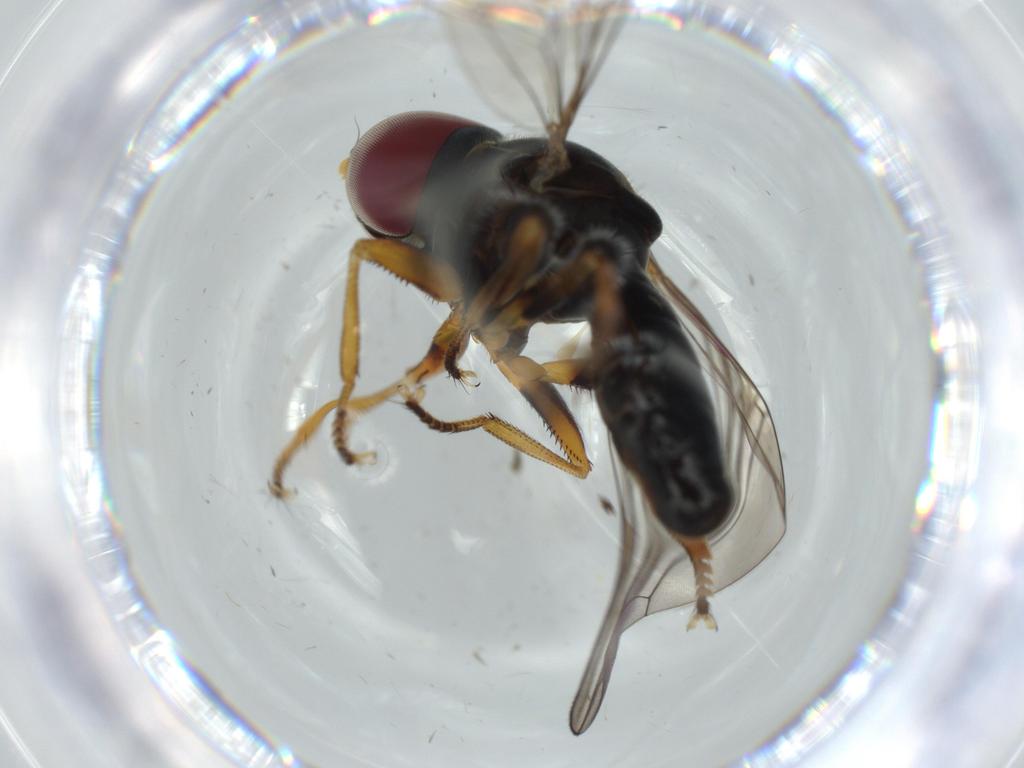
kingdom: Animalia
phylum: Arthropoda
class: Insecta
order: Diptera
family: Pipunculidae
